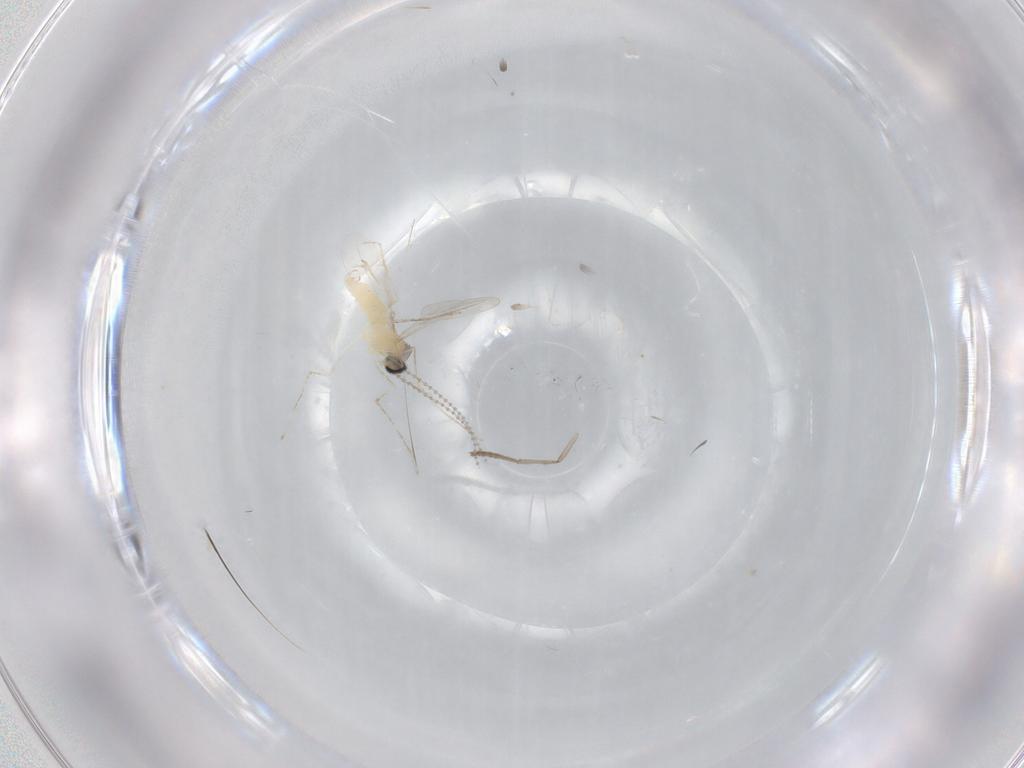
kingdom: Animalia
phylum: Arthropoda
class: Insecta
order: Diptera
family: Cecidomyiidae
